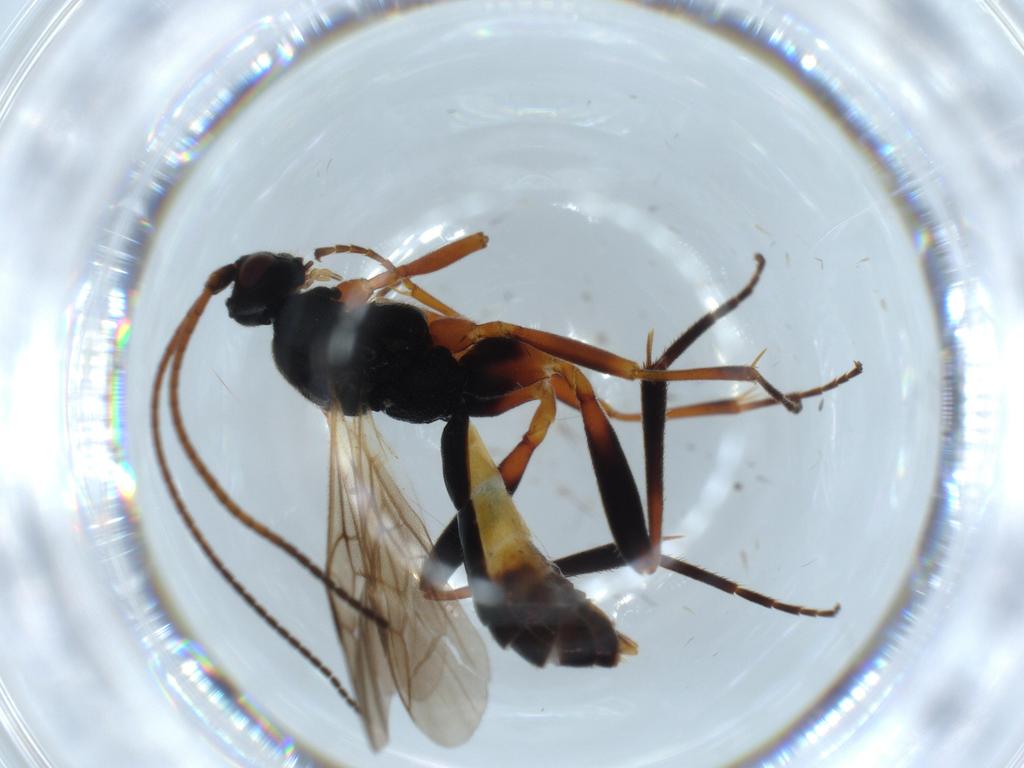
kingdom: Animalia
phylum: Arthropoda
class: Insecta
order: Hymenoptera
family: Braconidae
